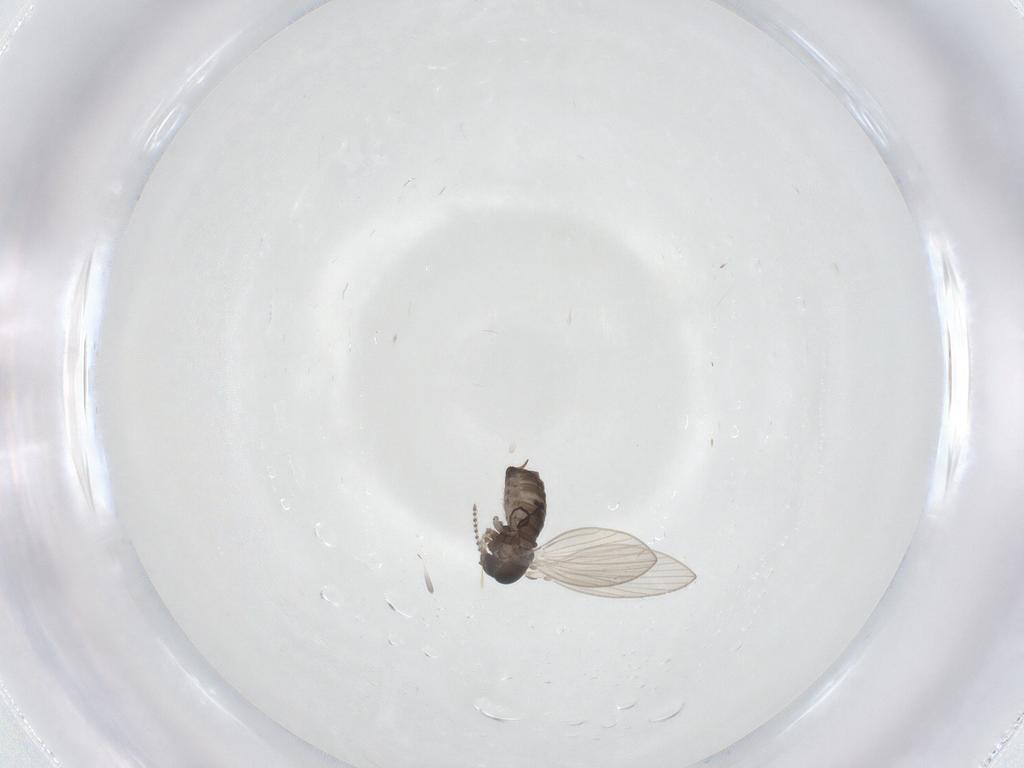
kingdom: Animalia
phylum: Arthropoda
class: Insecta
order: Diptera
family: Psychodidae
